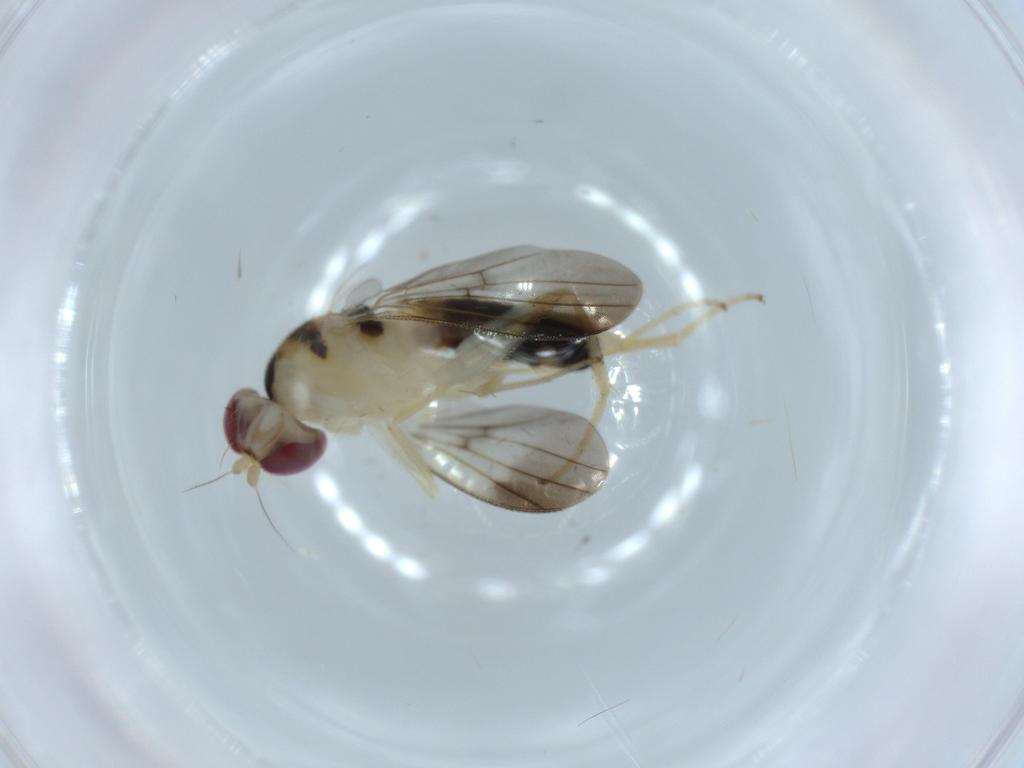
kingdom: Animalia
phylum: Arthropoda
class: Insecta
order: Diptera
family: Clusiidae
